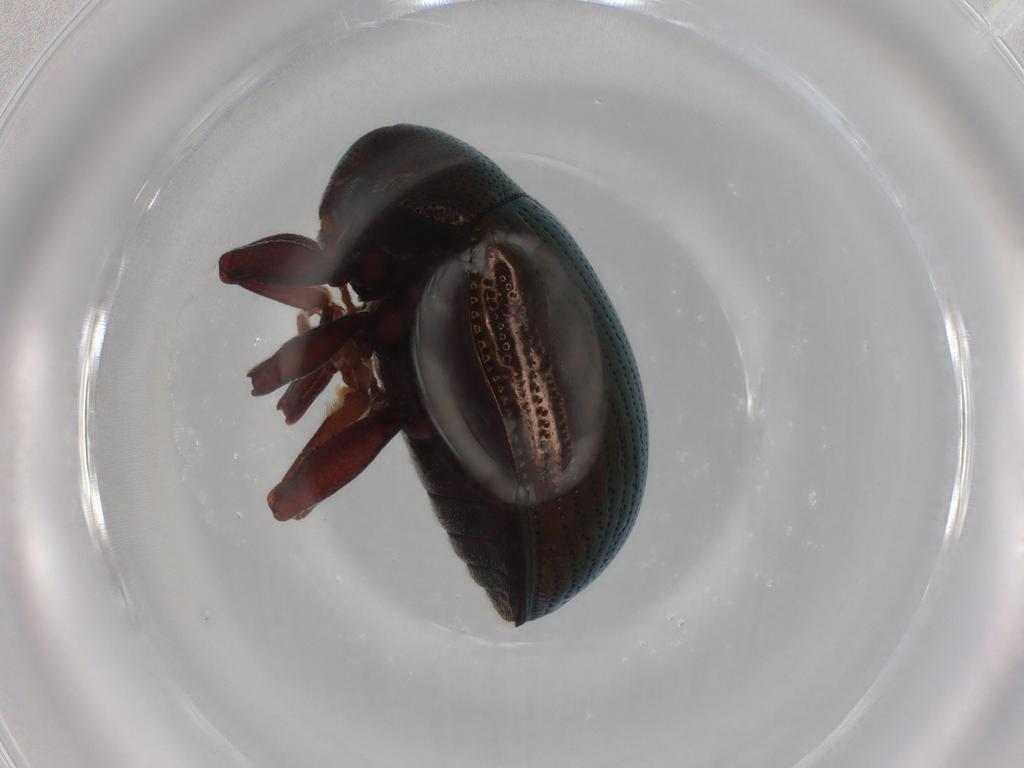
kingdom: Animalia
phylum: Arthropoda
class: Insecta
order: Coleoptera
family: Chrysomelidae
